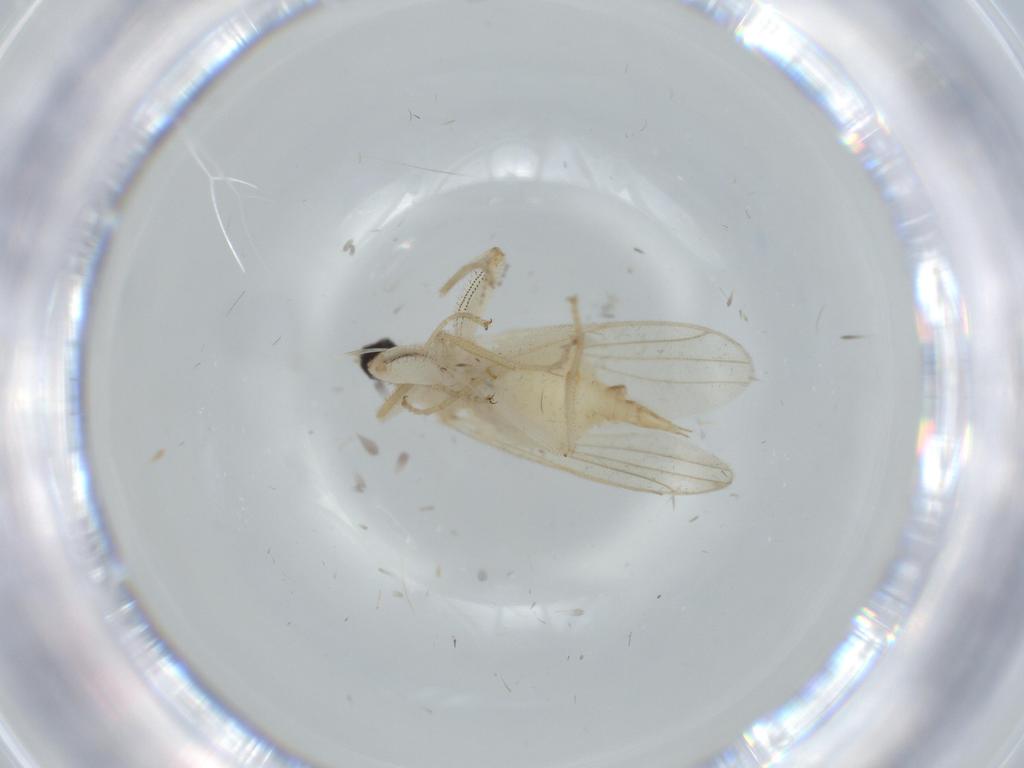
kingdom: Animalia
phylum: Arthropoda
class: Insecta
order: Diptera
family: Hybotidae
